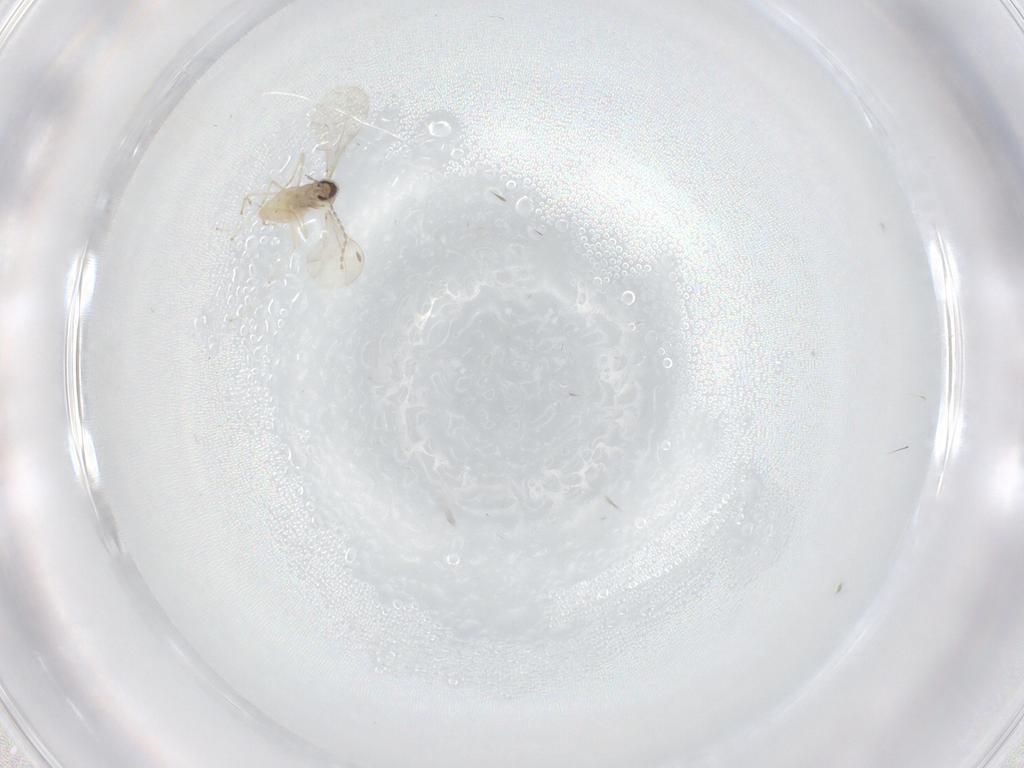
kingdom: Animalia
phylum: Arthropoda
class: Insecta
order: Diptera
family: Cecidomyiidae
